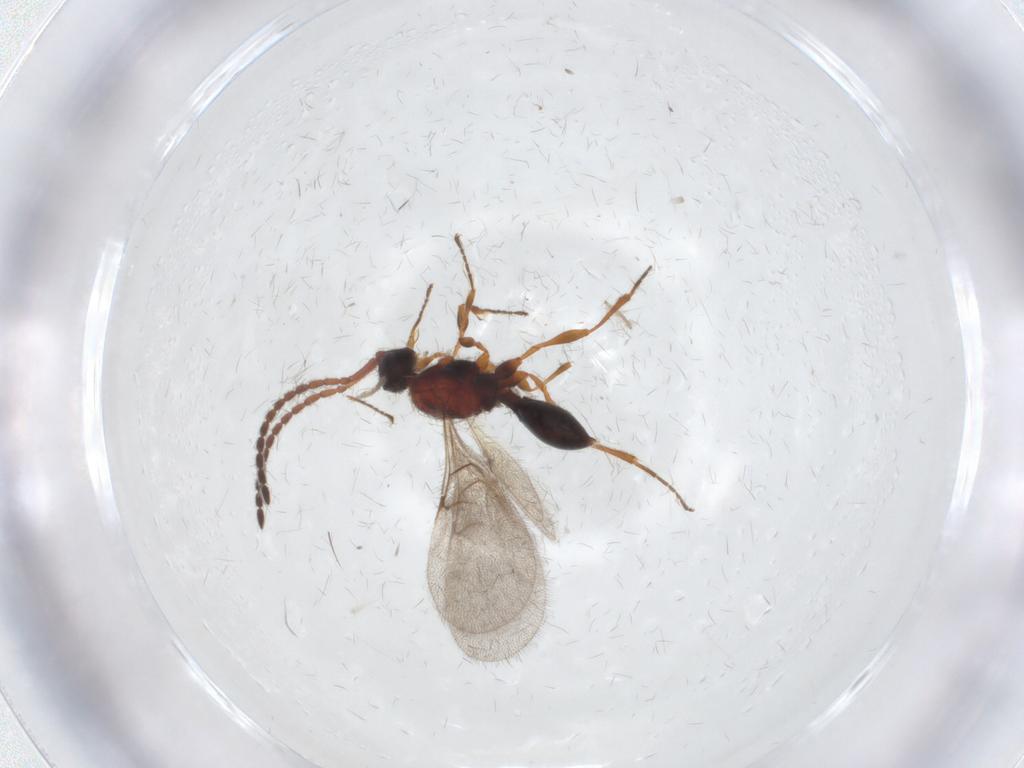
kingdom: Animalia
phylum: Arthropoda
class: Insecta
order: Hymenoptera
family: Diapriidae
